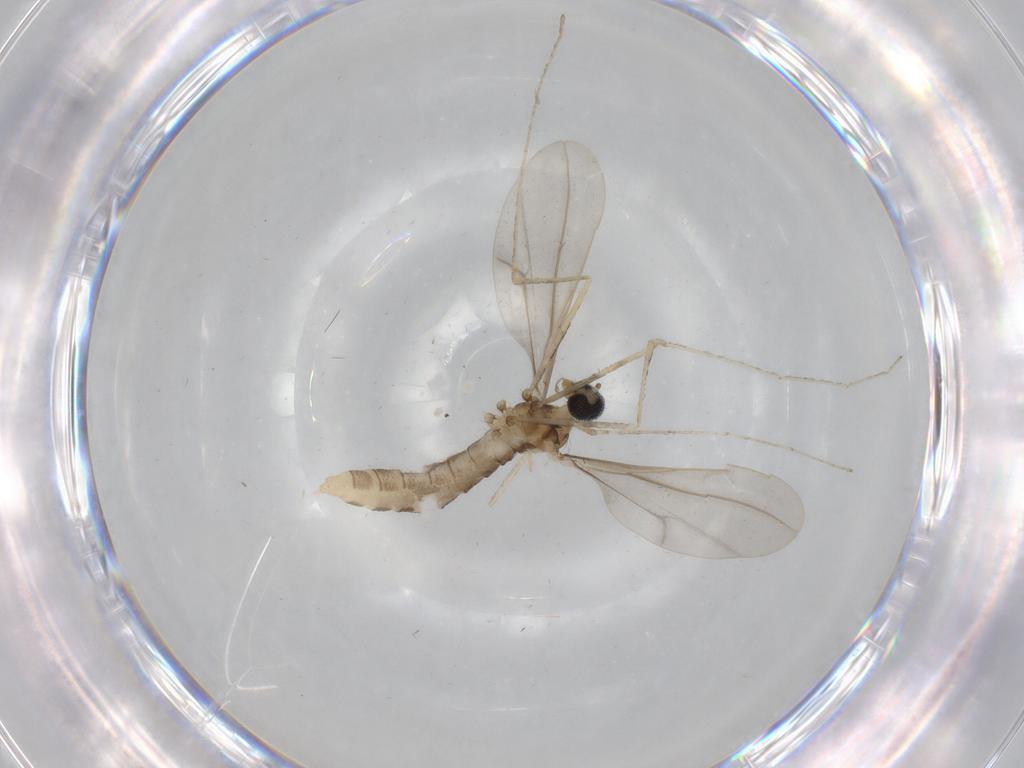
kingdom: Animalia
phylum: Arthropoda
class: Insecta
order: Diptera
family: Cecidomyiidae
